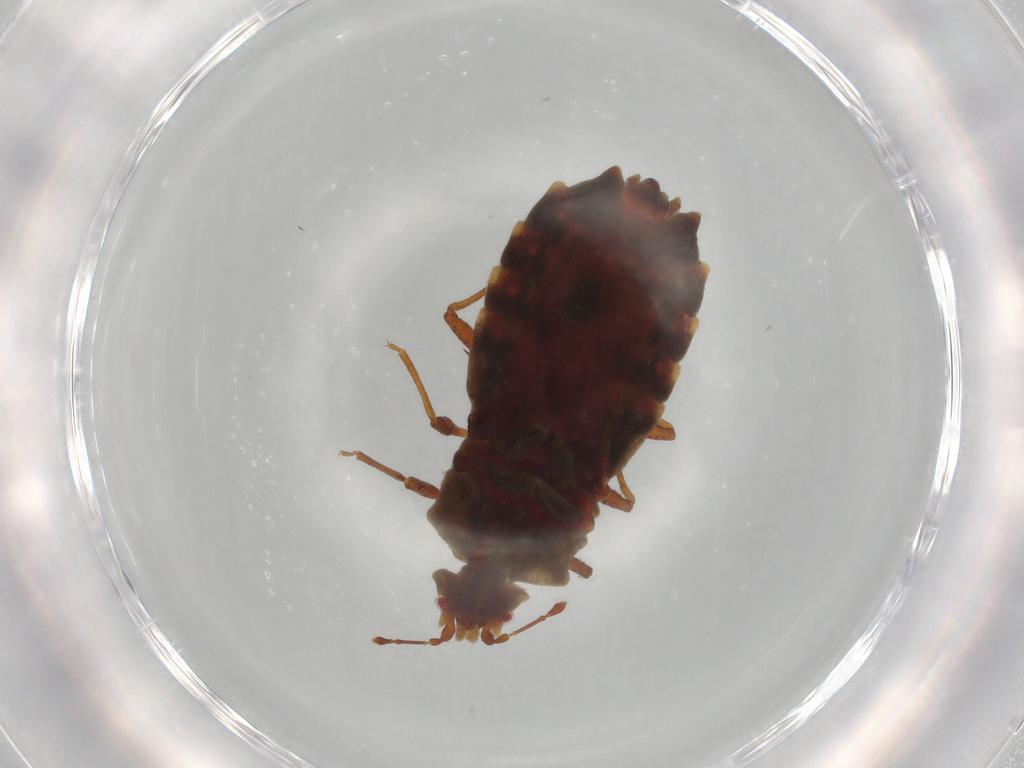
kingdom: Animalia
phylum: Arthropoda
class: Insecta
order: Hemiptera
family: Aradidae
